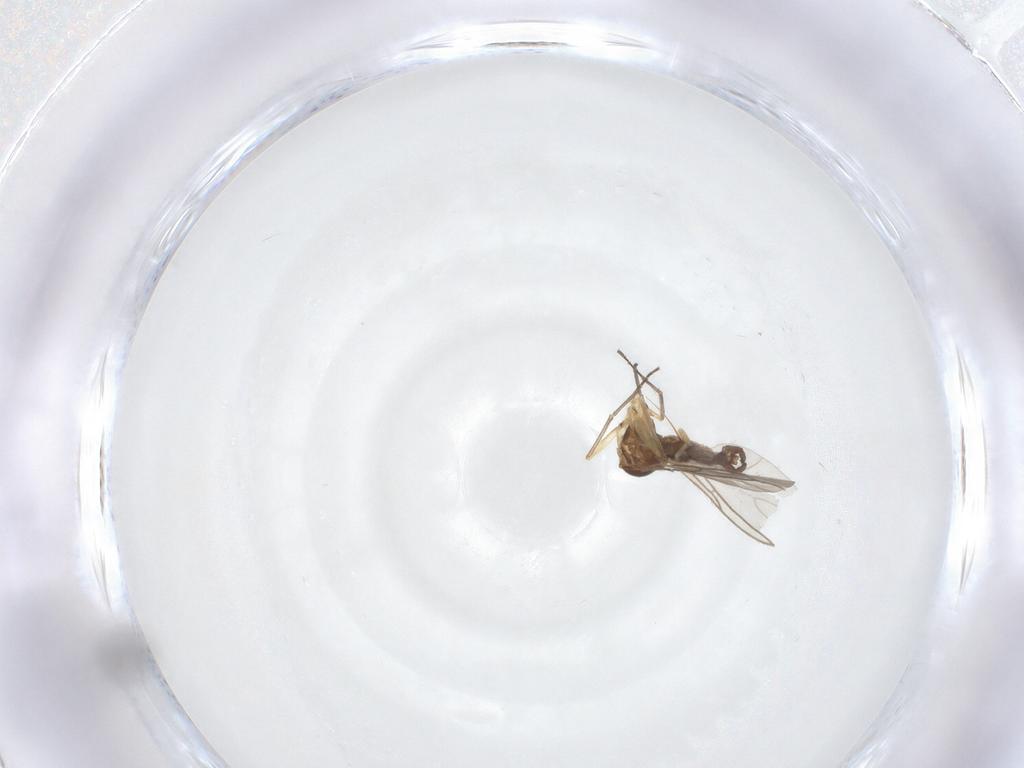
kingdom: Animalia
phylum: Arthropoda
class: Insecta
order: Diptera
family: Sciaridae
